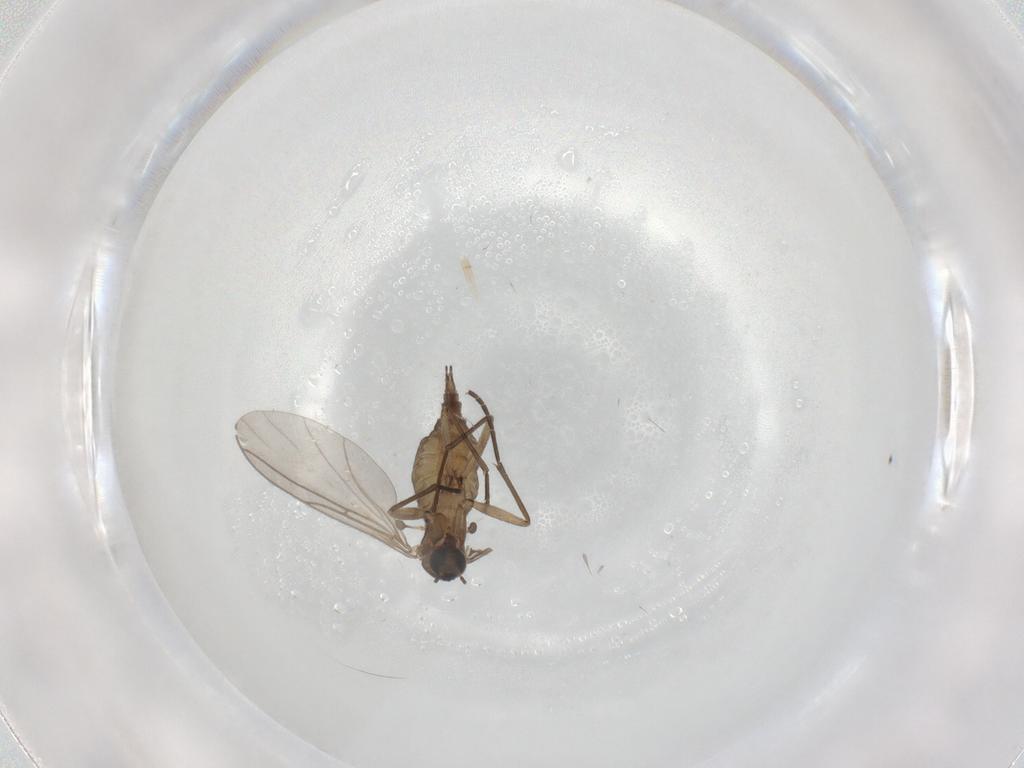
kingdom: Animalia
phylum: Arthropoda
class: Insecta
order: Diptera
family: Sciaridae
